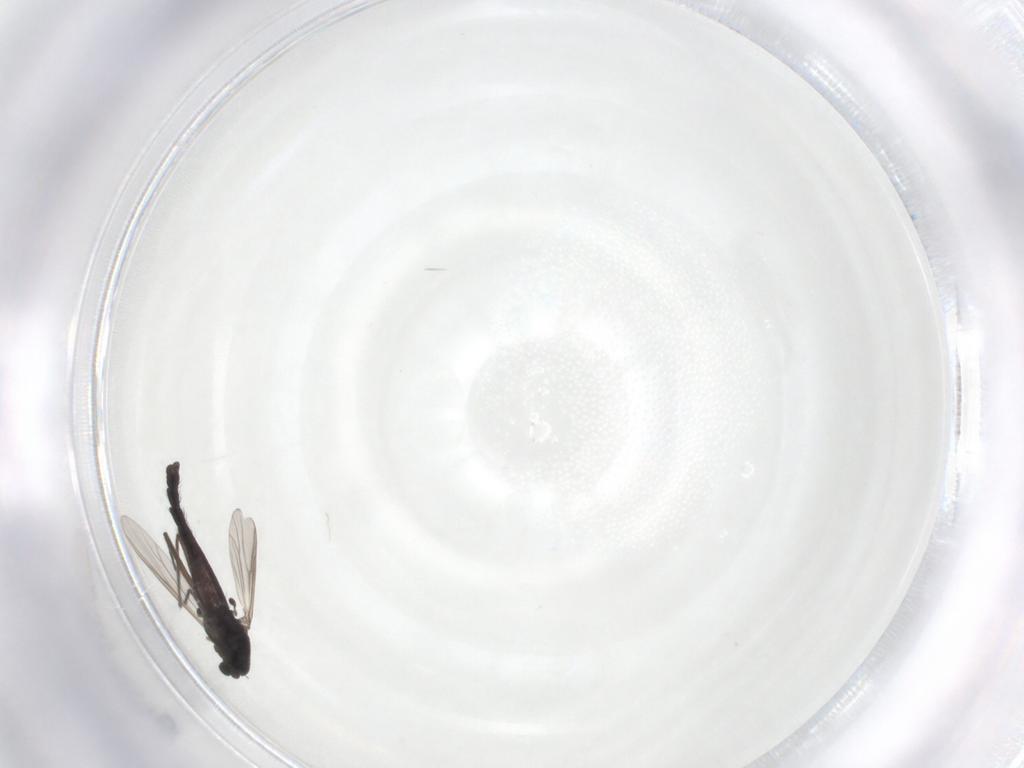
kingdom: Animalia
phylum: Arthropoda
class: Insecta
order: Diptera
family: Chironomidae
